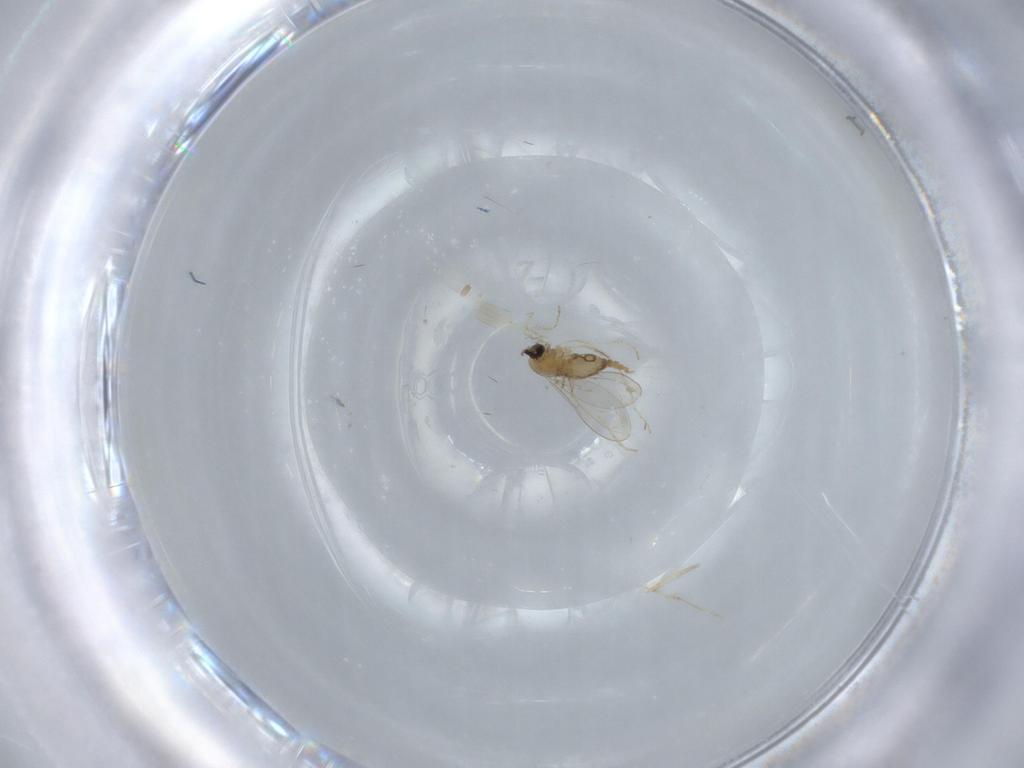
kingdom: Animalia
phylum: Arthropoda
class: Insecta
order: Diptera
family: Cecidomyiidae
